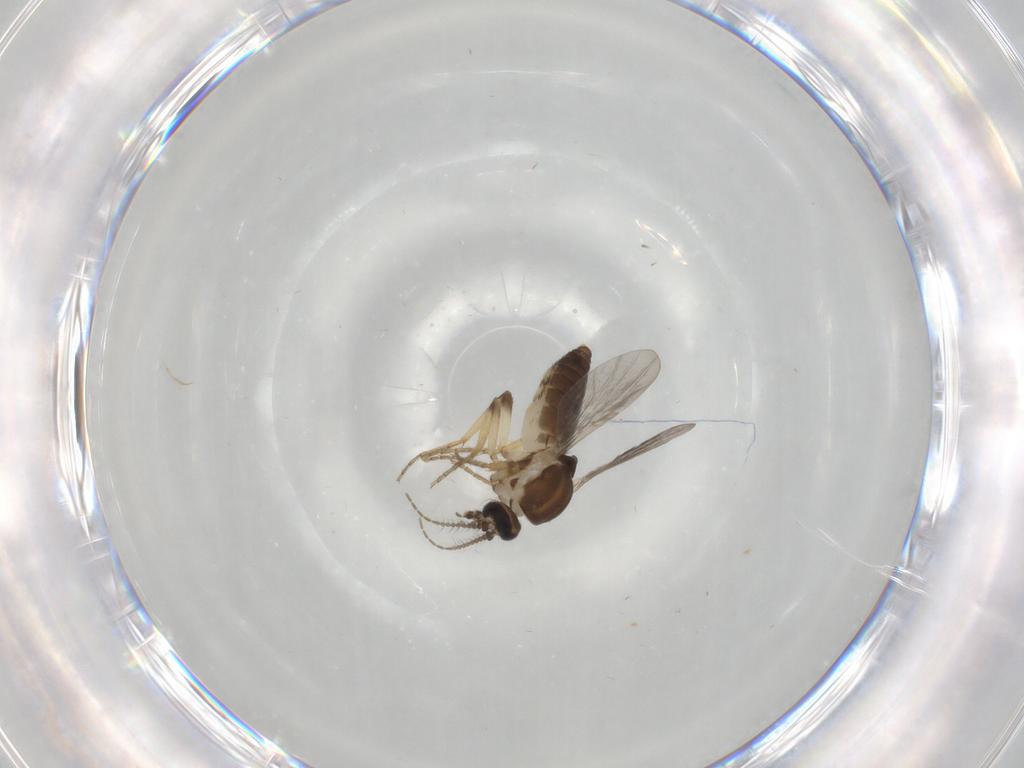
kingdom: Animalia
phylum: Arthropoda
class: Insecta
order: Diptera
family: Ceratopogonidae
